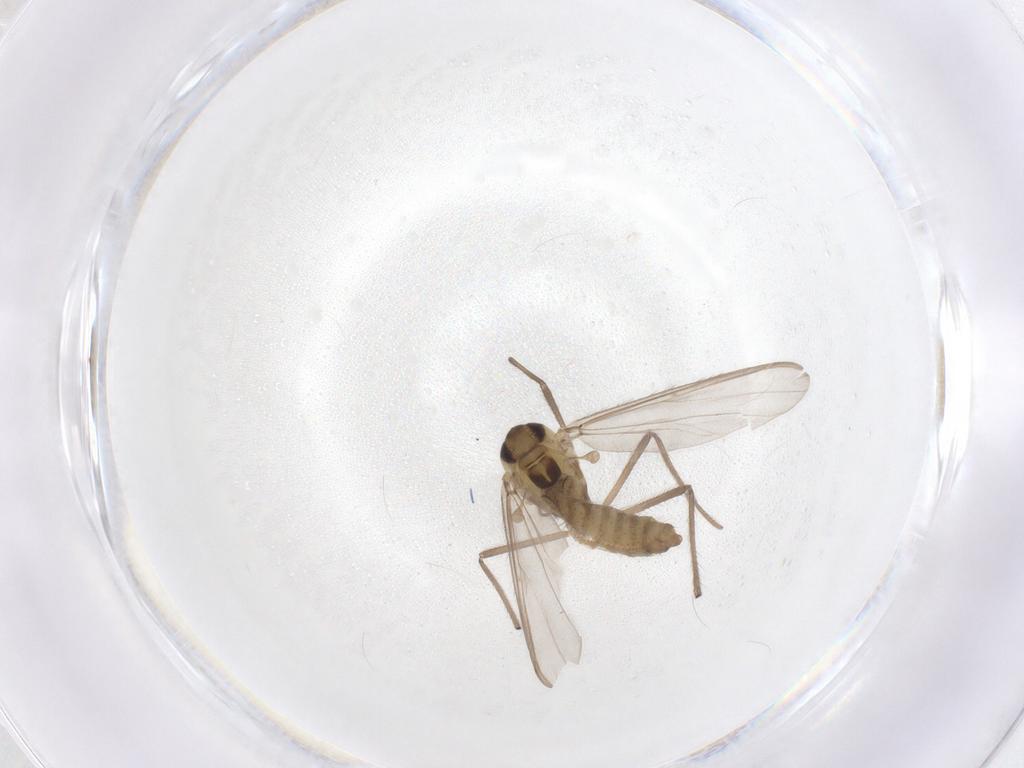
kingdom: Animalia
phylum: Arthropoda
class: Insecta
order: Diptera
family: Chironomidae
